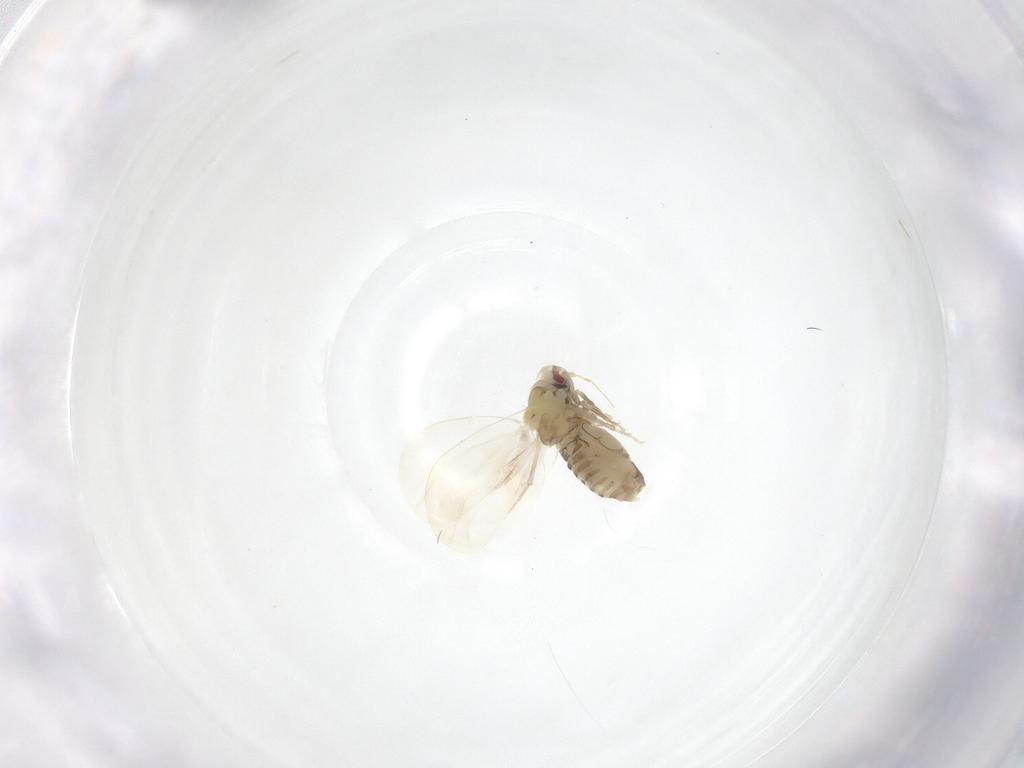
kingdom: Animalia
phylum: Arthropoda
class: Insecta
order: Hemiptera
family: Aleyrodidae
